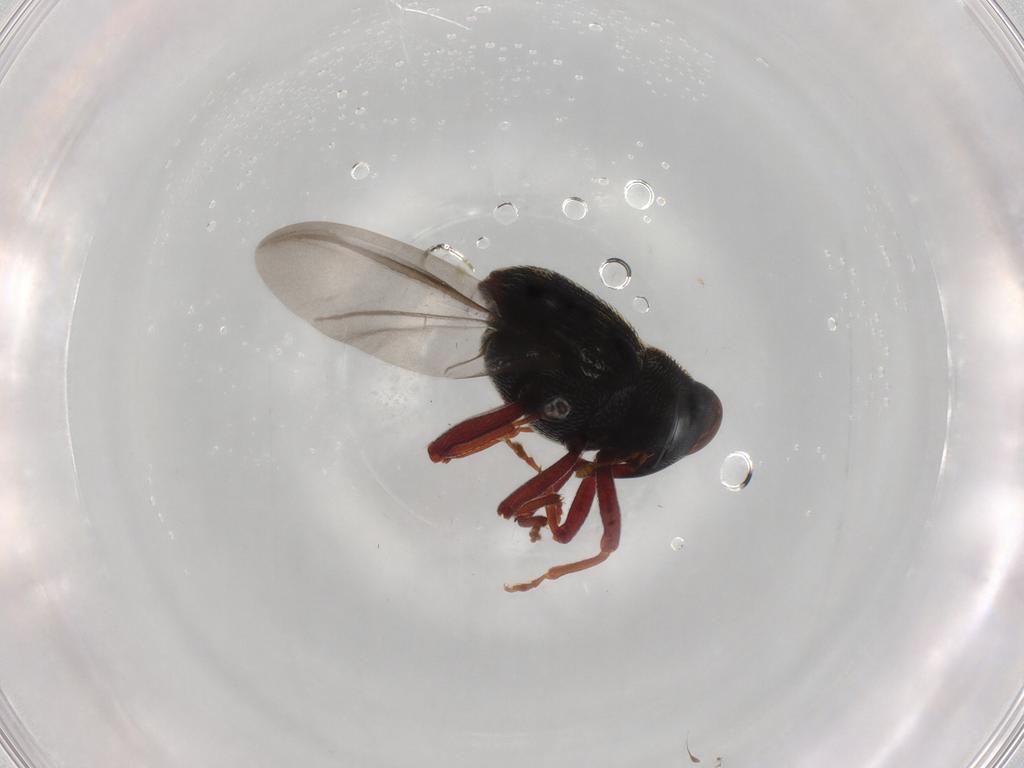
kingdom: Animalia
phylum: Arthropoda
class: Insecta
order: Coleoptera
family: Curculionidae
